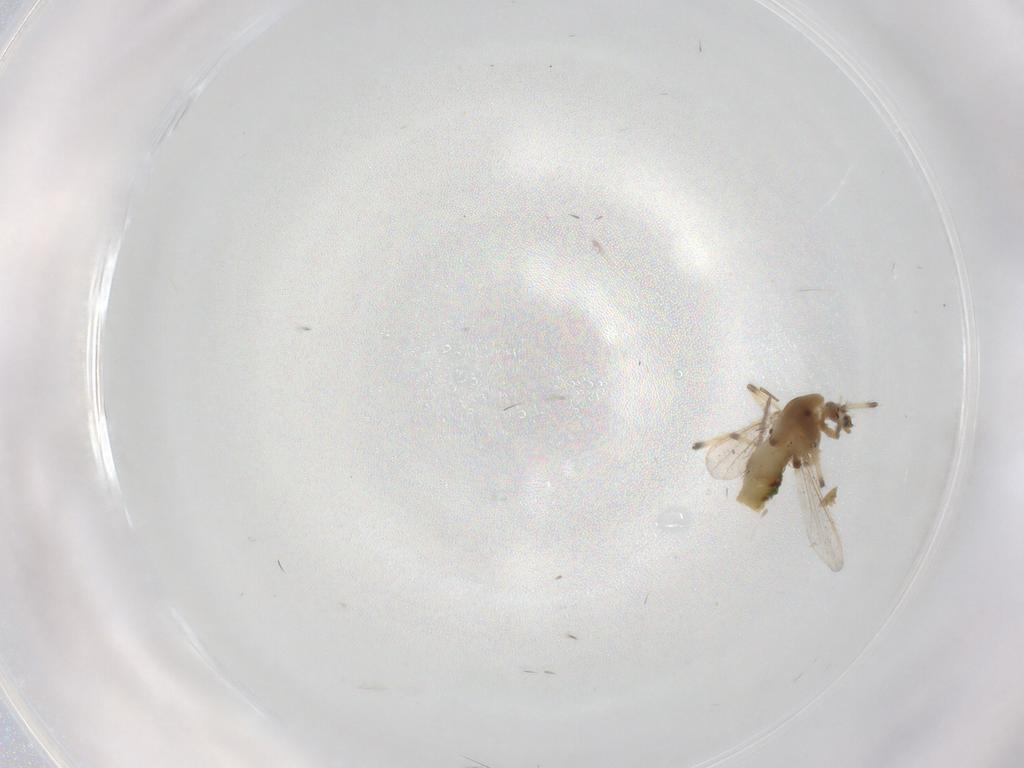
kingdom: Animalia
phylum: Arthropoda
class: Insecta
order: Diptera
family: Chironomidae
